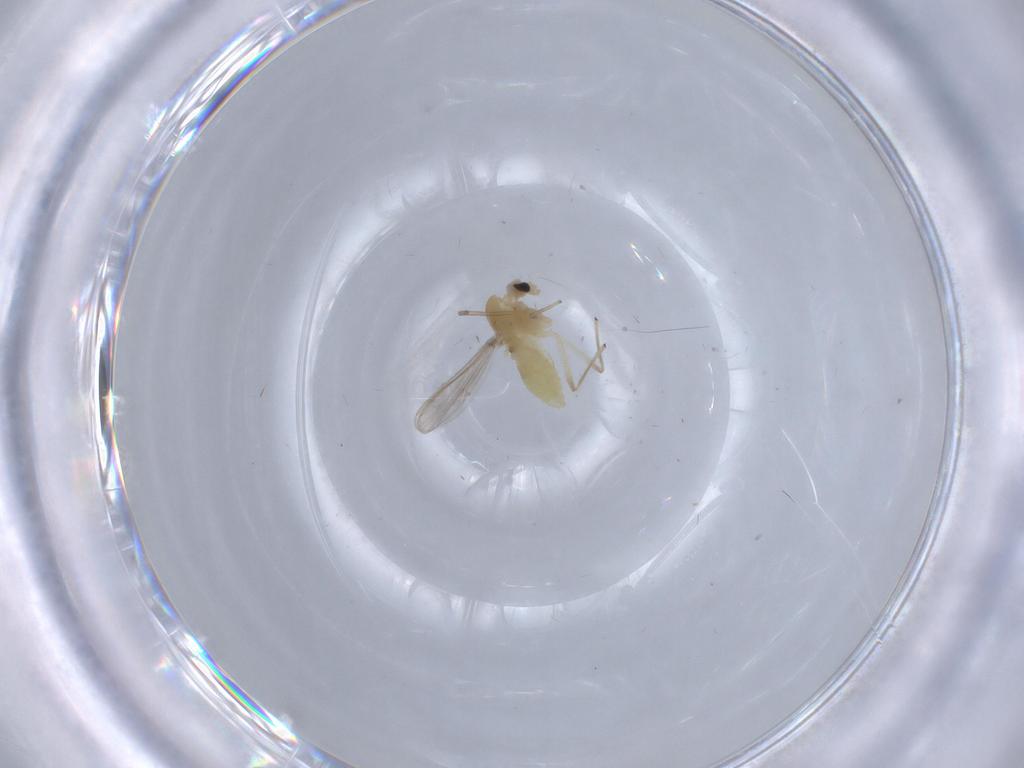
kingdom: Animalia
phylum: Arthropoda
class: Insecta
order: Diptera
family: Chironomidae
